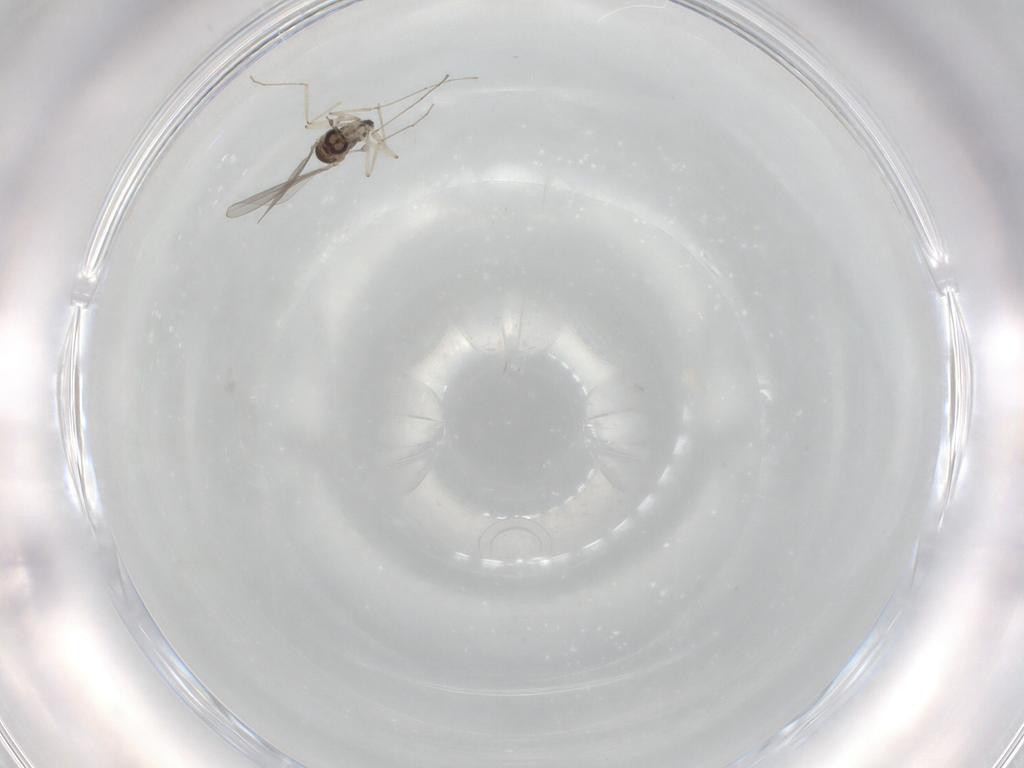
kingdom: Animalia
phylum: Arthropoda
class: Insecta
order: Diptera
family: Cecidomyiidae
